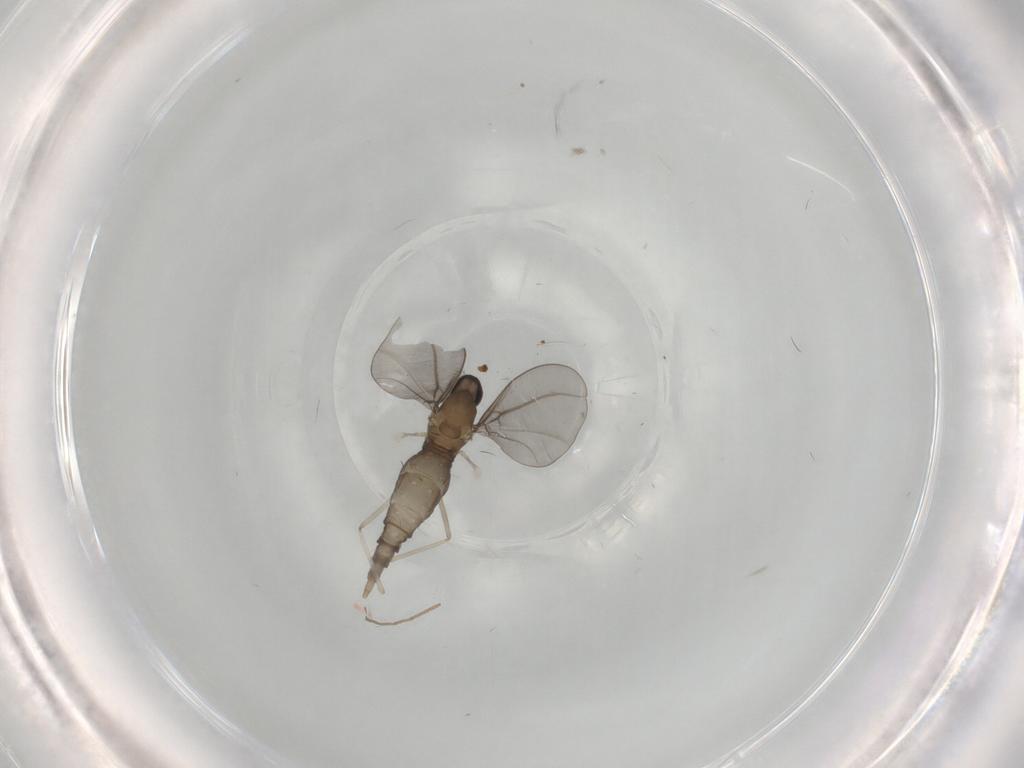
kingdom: Animalia
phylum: Arthropoda
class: Insecta
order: Diptera
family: Cecidomyiidae
